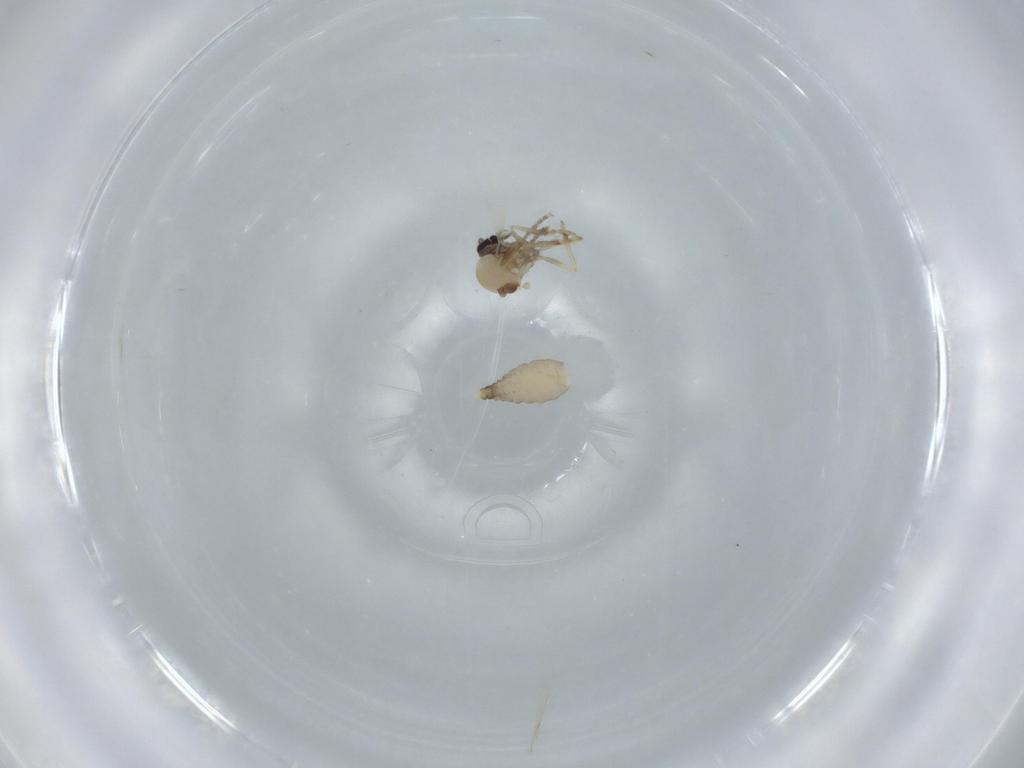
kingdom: Animalia
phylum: Arthropoda
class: Insecta
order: Diptera
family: Ceratopogonidae
